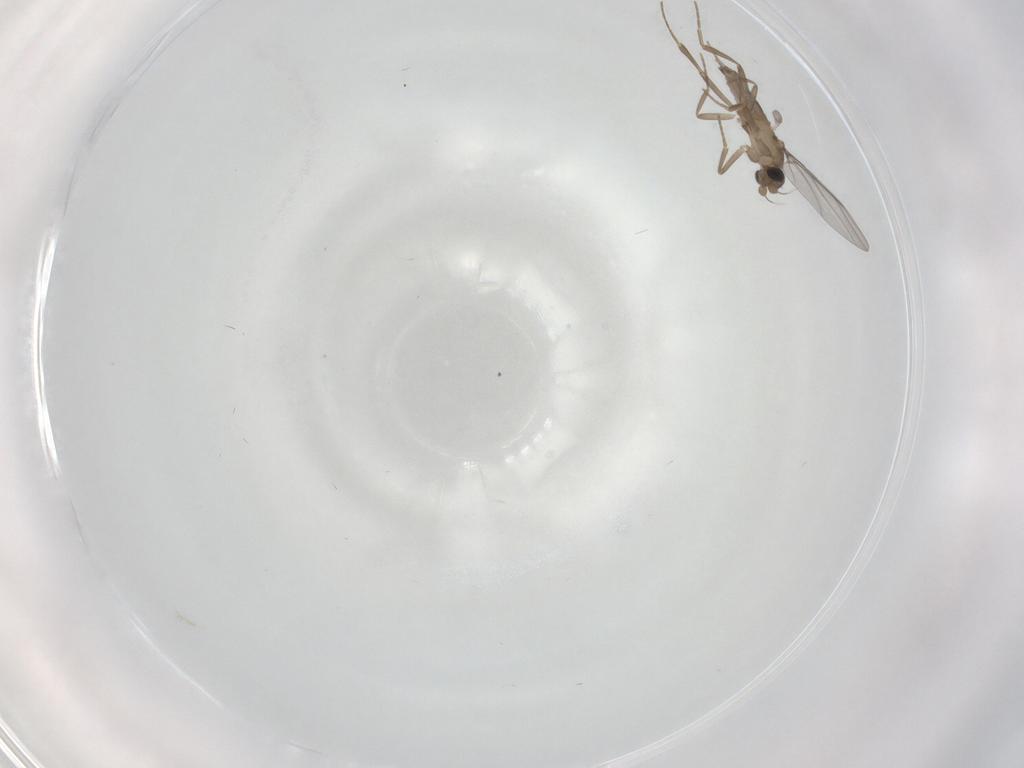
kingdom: Animalia
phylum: Arthropoda
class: Insecta
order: Diptera
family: Cecidomyiidae
